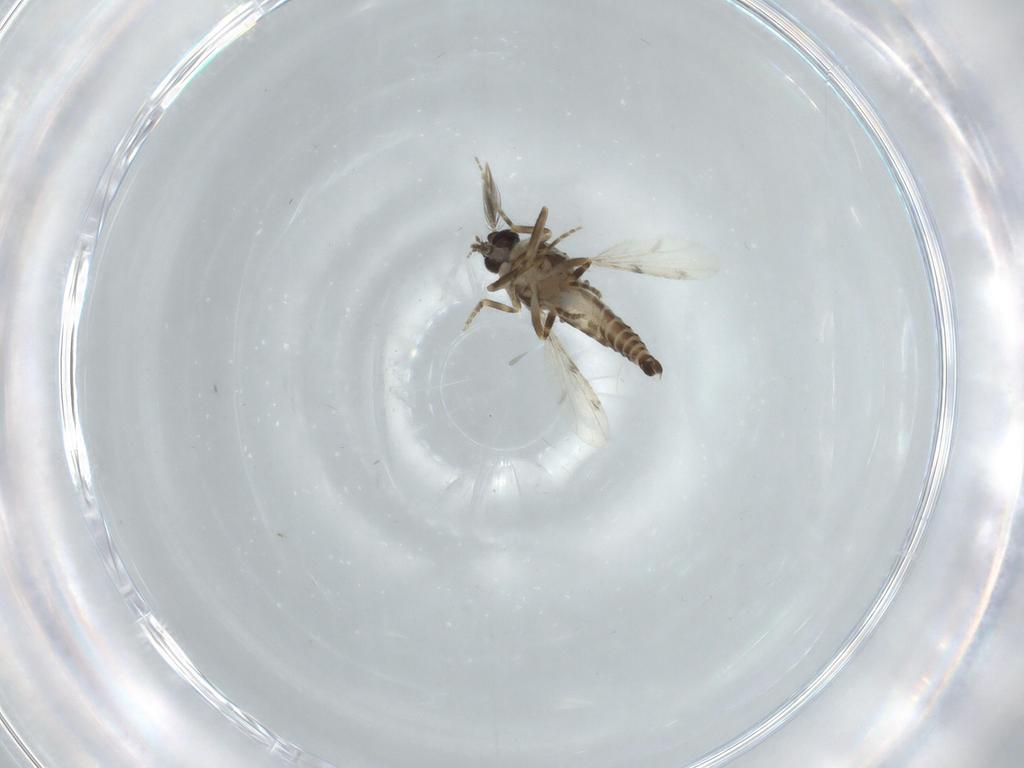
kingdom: Animalia
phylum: Arthropoda
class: Insecta
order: Diptera
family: Ceratopogonidae
